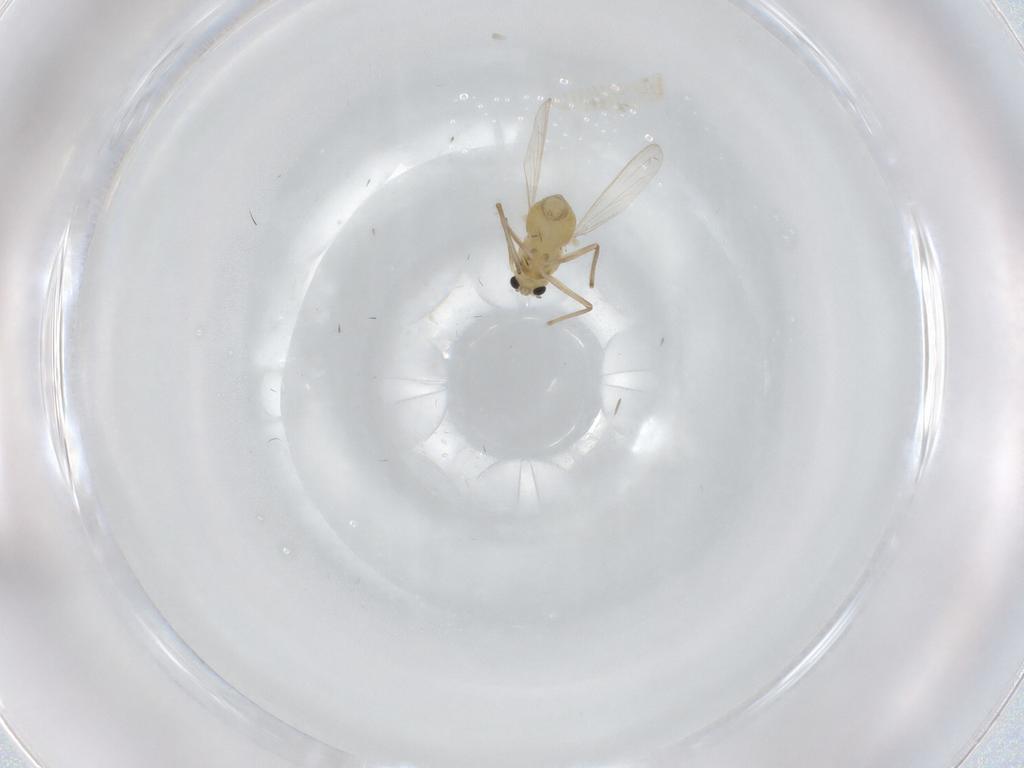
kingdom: Animalia
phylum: Arthropoda
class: Insecta
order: Diptera
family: Chironomidae
